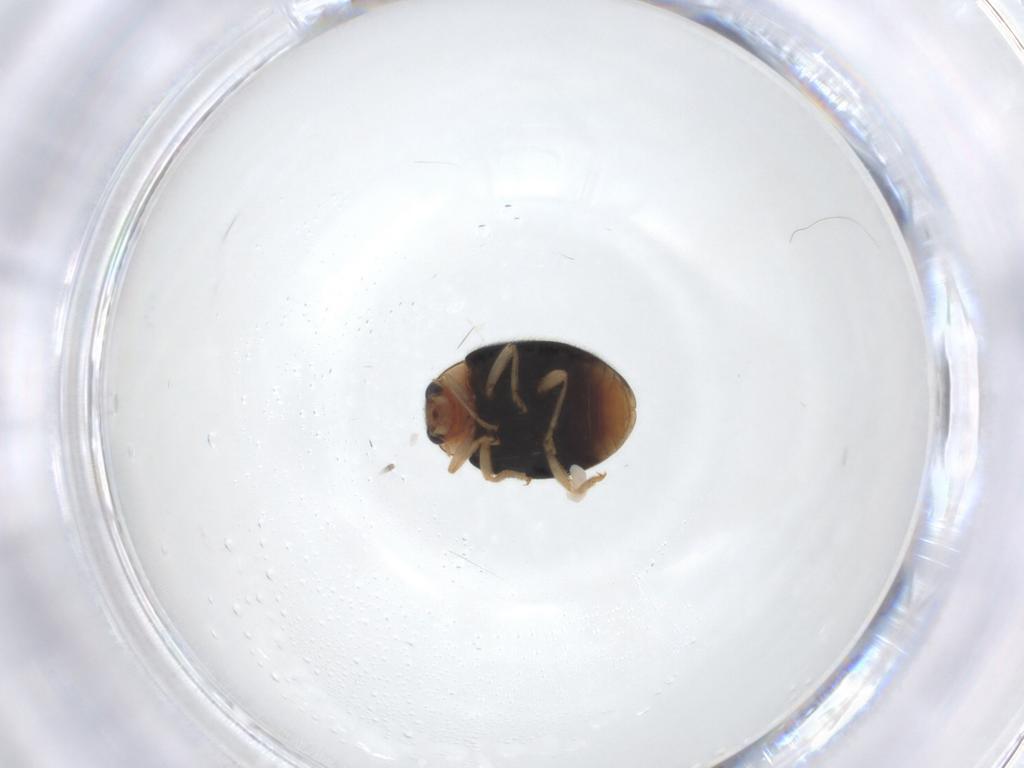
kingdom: Animalia
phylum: Arthropoda
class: Insecta
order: Coleoptera
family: Coccinellidae
